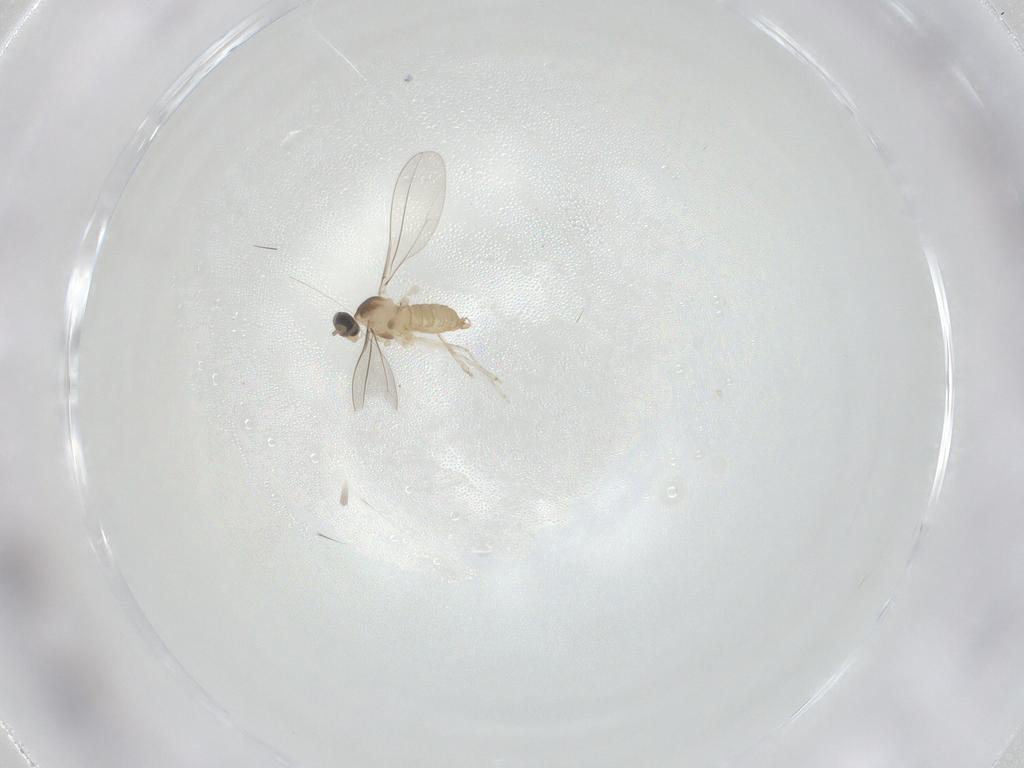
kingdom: Animalia
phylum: Arthropoda
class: Insecta
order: Diptera
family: Cecidomyiidae
